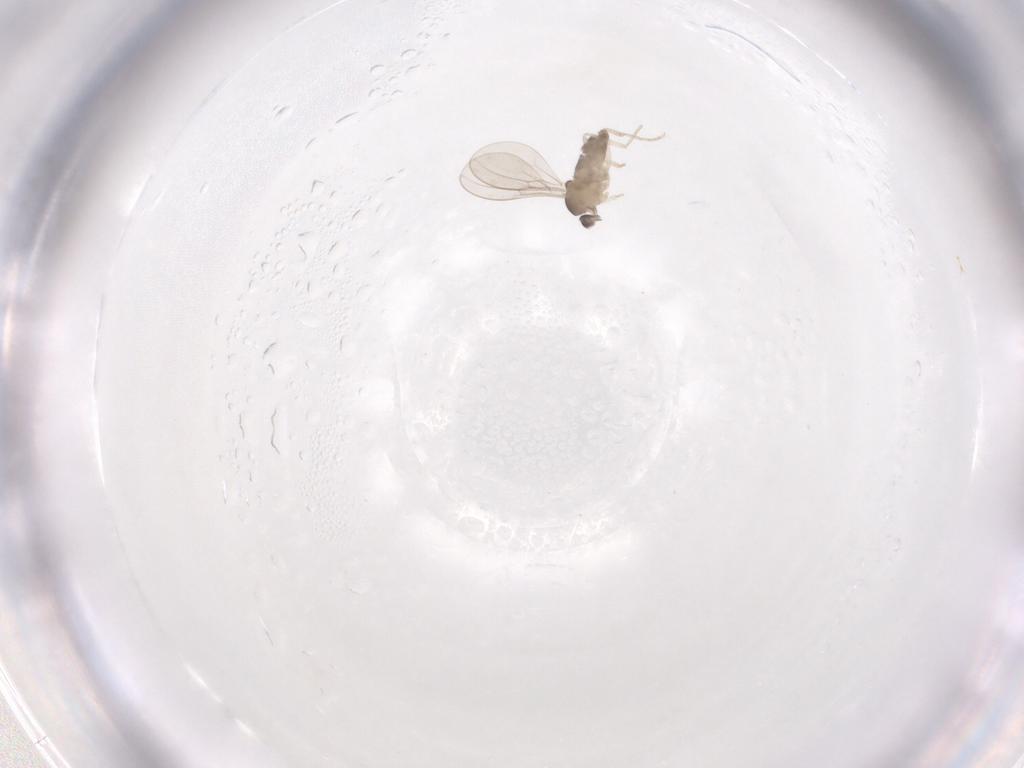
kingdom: Animalia
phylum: Arthropoda
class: Insecta
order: Diptera
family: Cecidomyiidae
